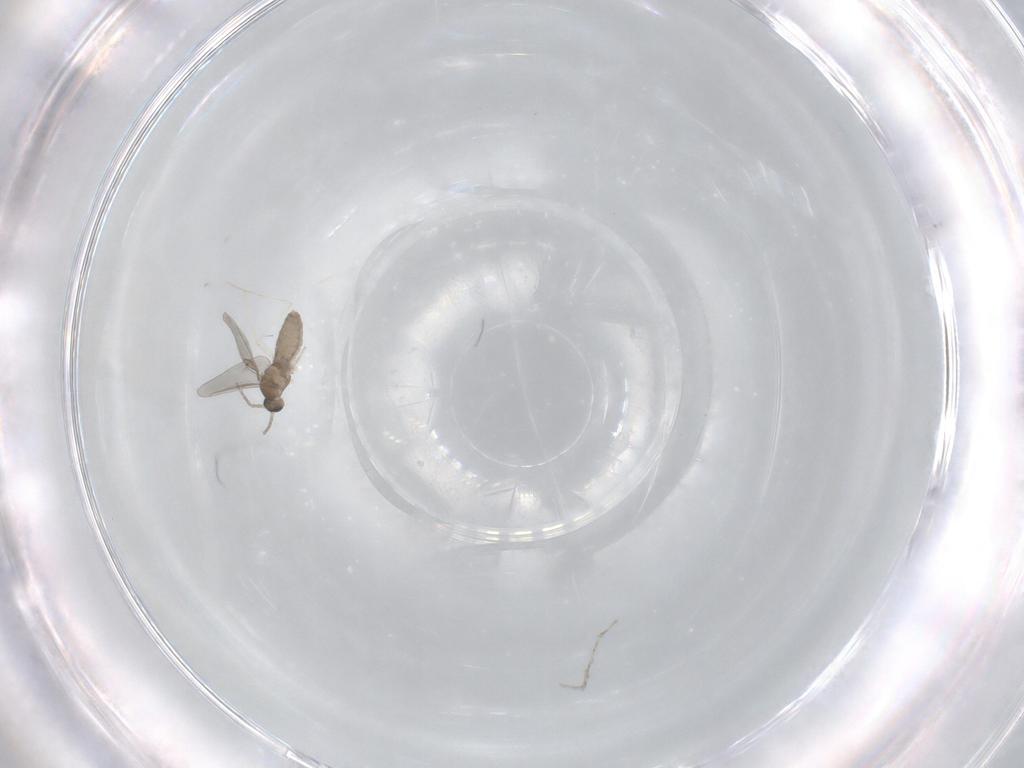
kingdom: Animalia
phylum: Arthropoda
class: Insecta
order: Diptera
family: Cecidomyiidae
